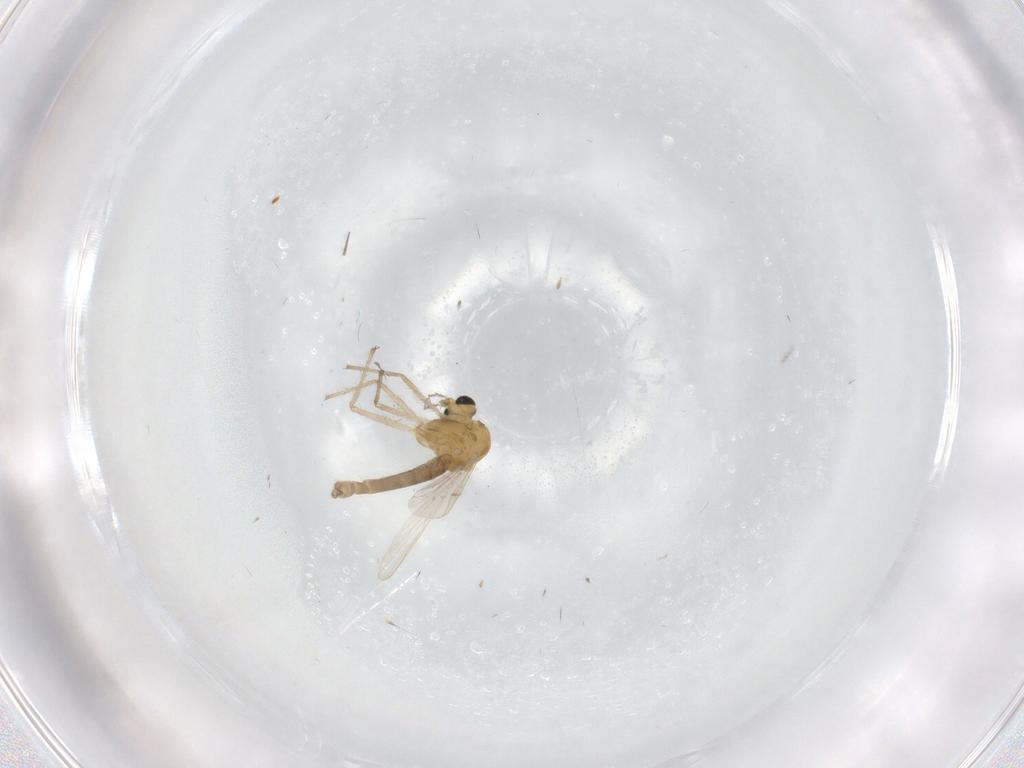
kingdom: Animalia
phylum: Arthropoda
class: Insecta
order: Diptera
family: Chironomidae
